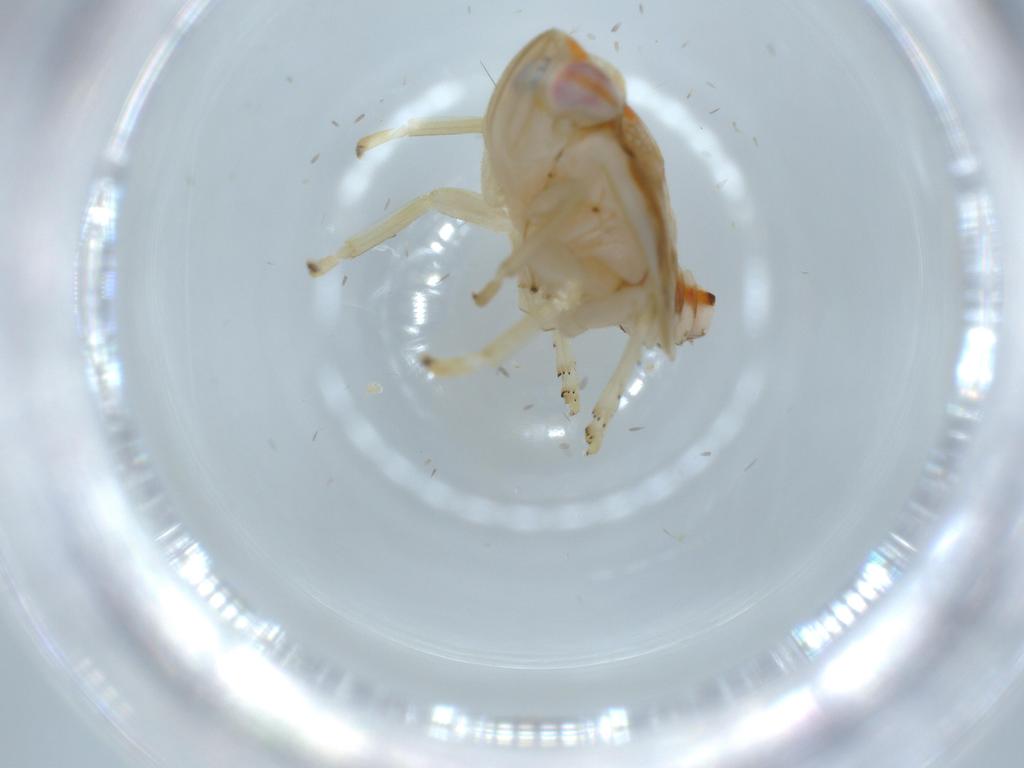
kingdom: Animalia
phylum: Arthropoda
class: Insecta
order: Hemiptera
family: Nogodinidae
